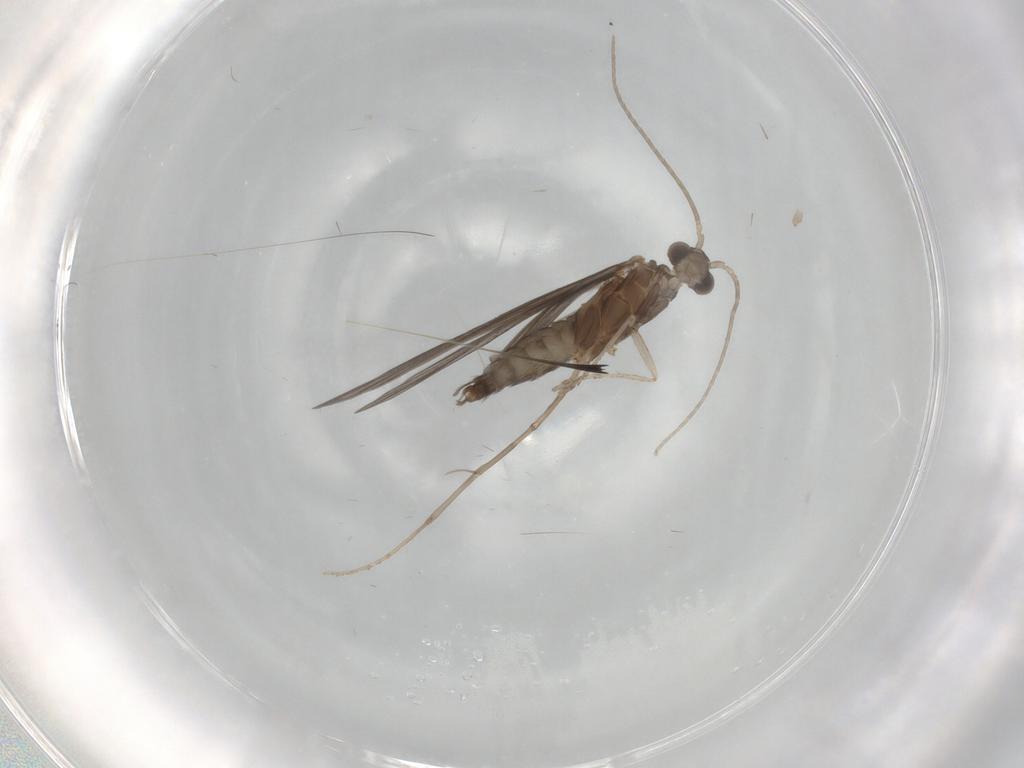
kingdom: Animalia
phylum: Arthropoda
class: Insecta
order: Trichoptera
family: Xiphocentronidae
